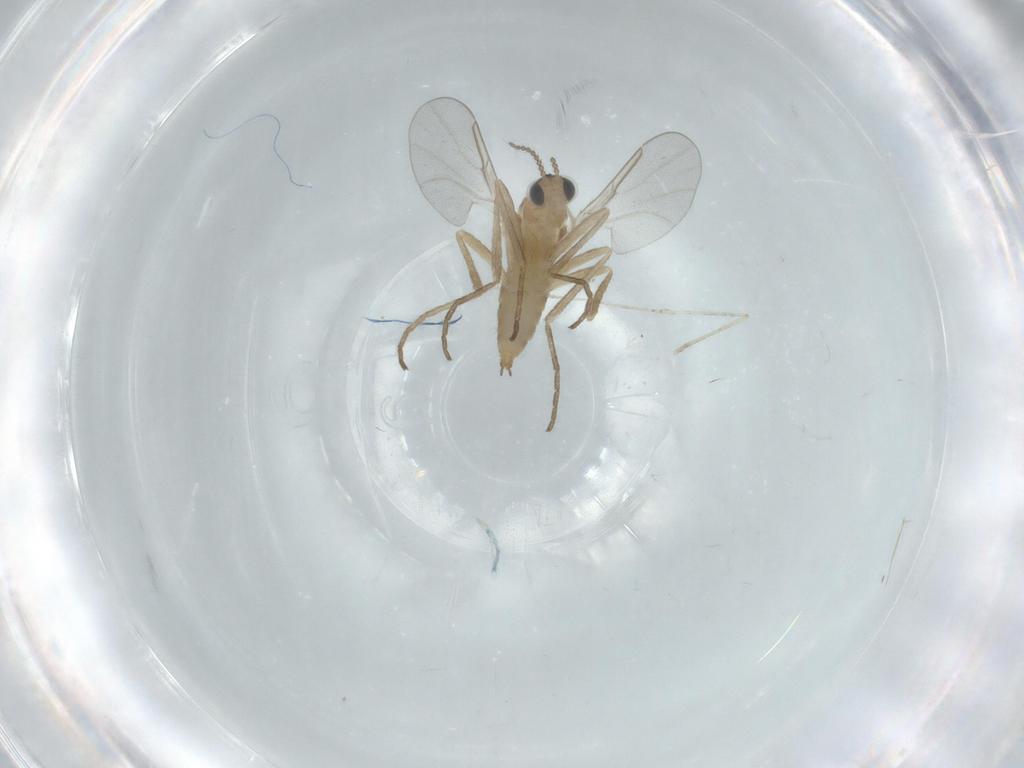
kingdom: Animalia
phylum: Arthropoda
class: Insecta
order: Diptera
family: Cecidomyiidae
